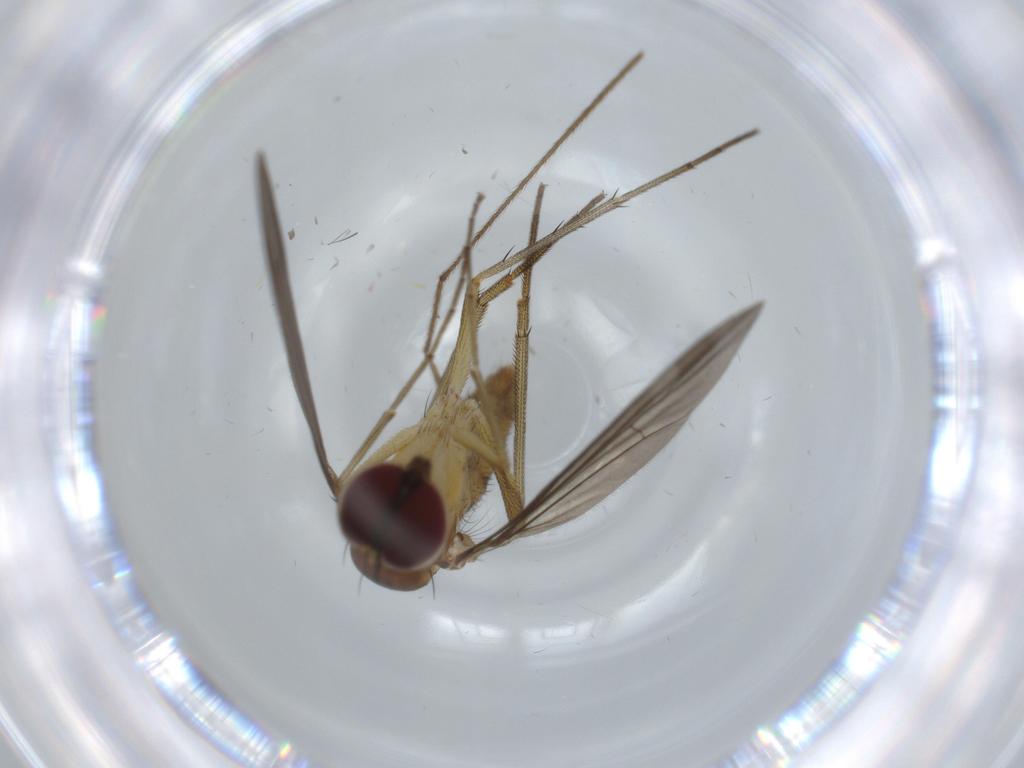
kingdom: Animalia
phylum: Arthropoda
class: Insecta
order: Diptera
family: Dolichopodidae
